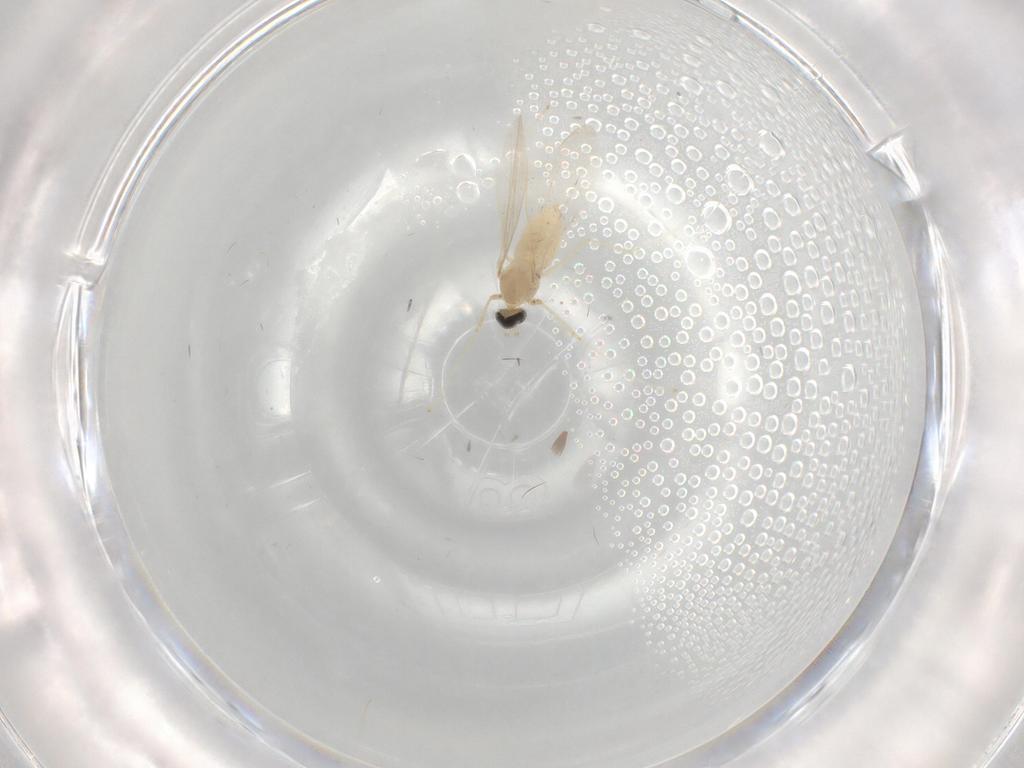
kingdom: Animalia
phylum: Arthropoda
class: Insecta
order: Diptera
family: Cecidomyiidae
